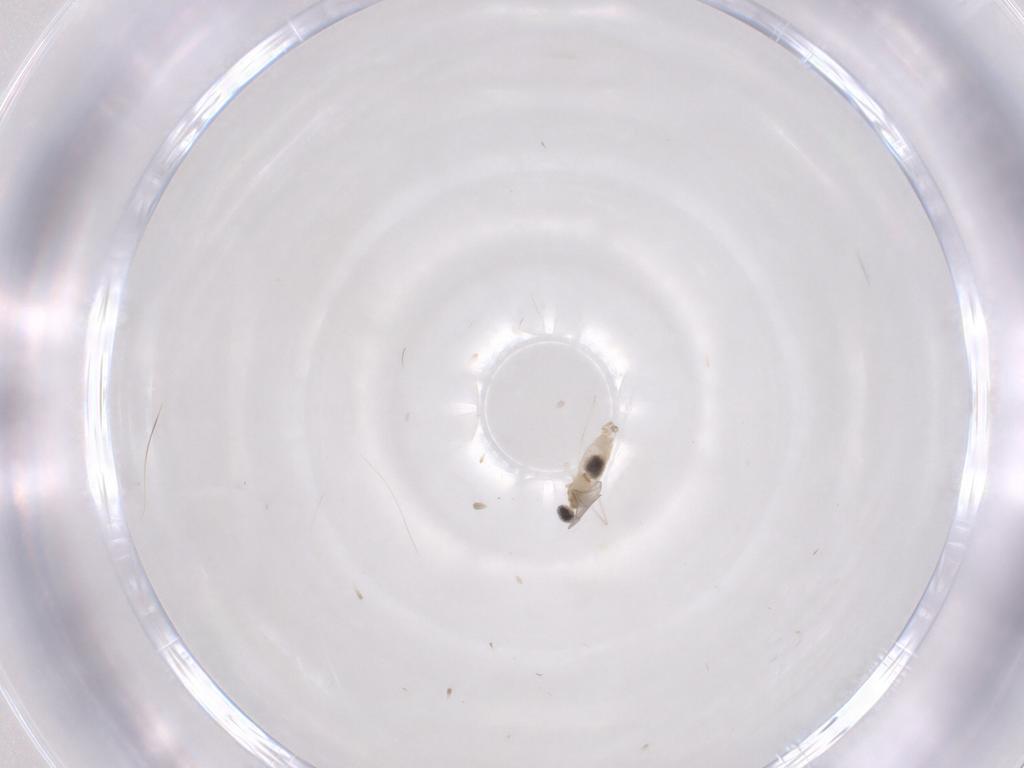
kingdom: Animalia
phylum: Arthropoda
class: Insecta
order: Diptera
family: Cecidomyiidae
